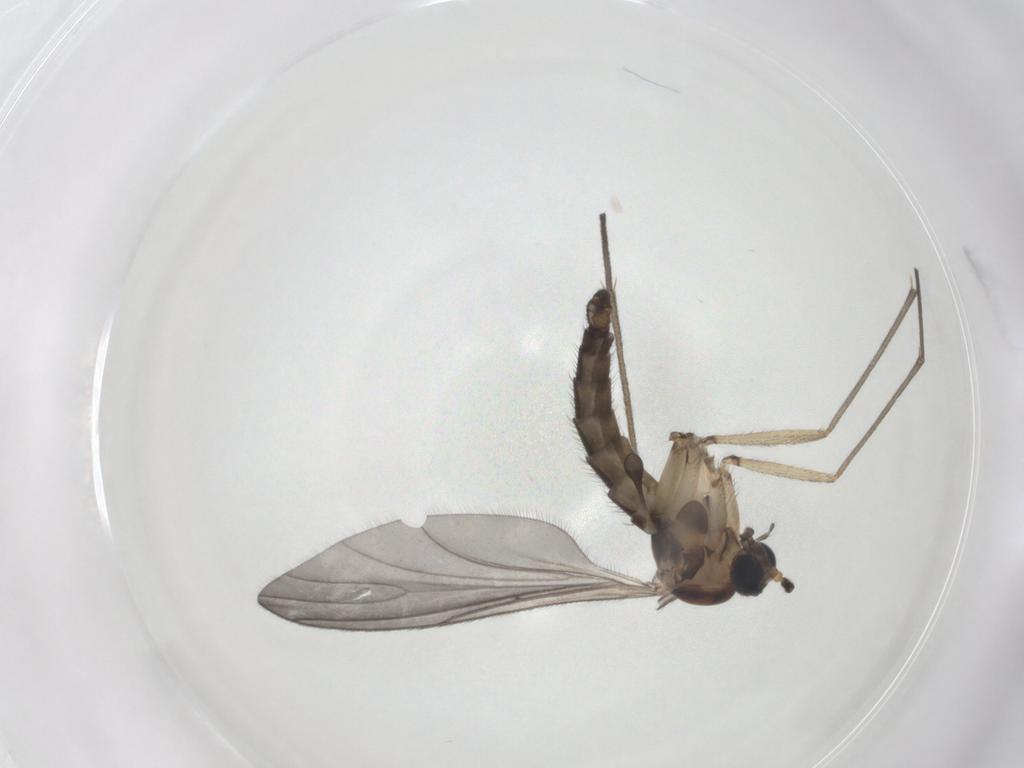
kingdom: Animalia
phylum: Arthropoda
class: Insecta
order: Diptera
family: Sciaridae
